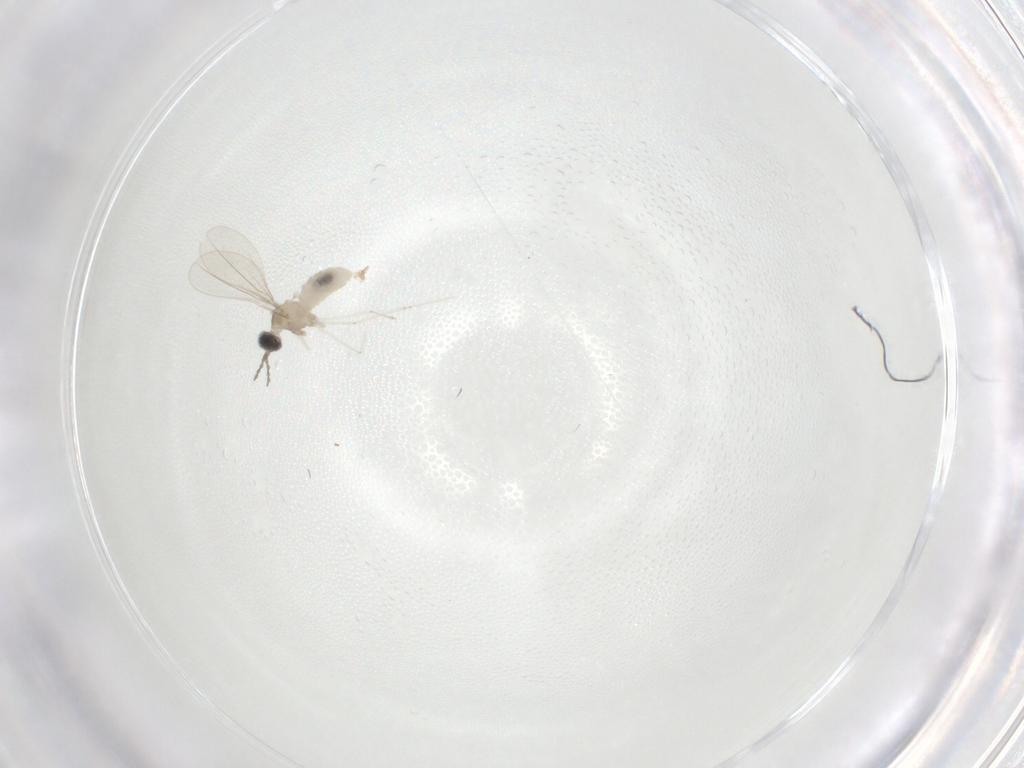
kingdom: Animalia
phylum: Arthropoda
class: Insecta
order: Diptera
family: Cecidomyiidae
